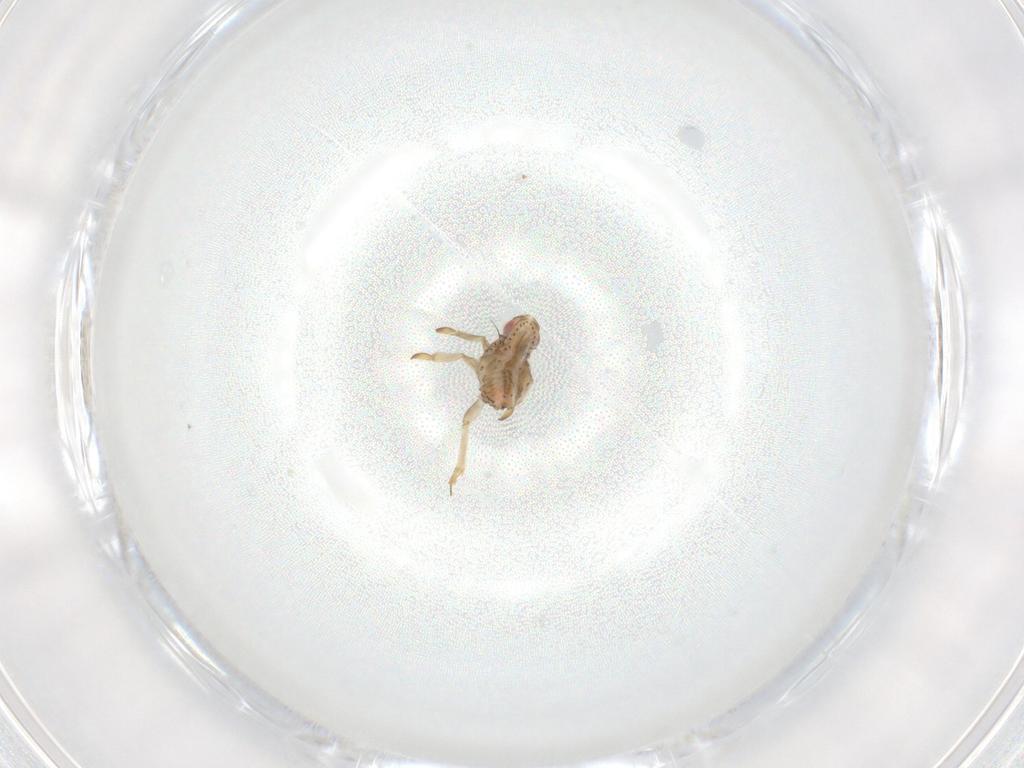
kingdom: Animalia
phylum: Arthropoda
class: Insecta
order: Hemiptera
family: Tropiduchidae
